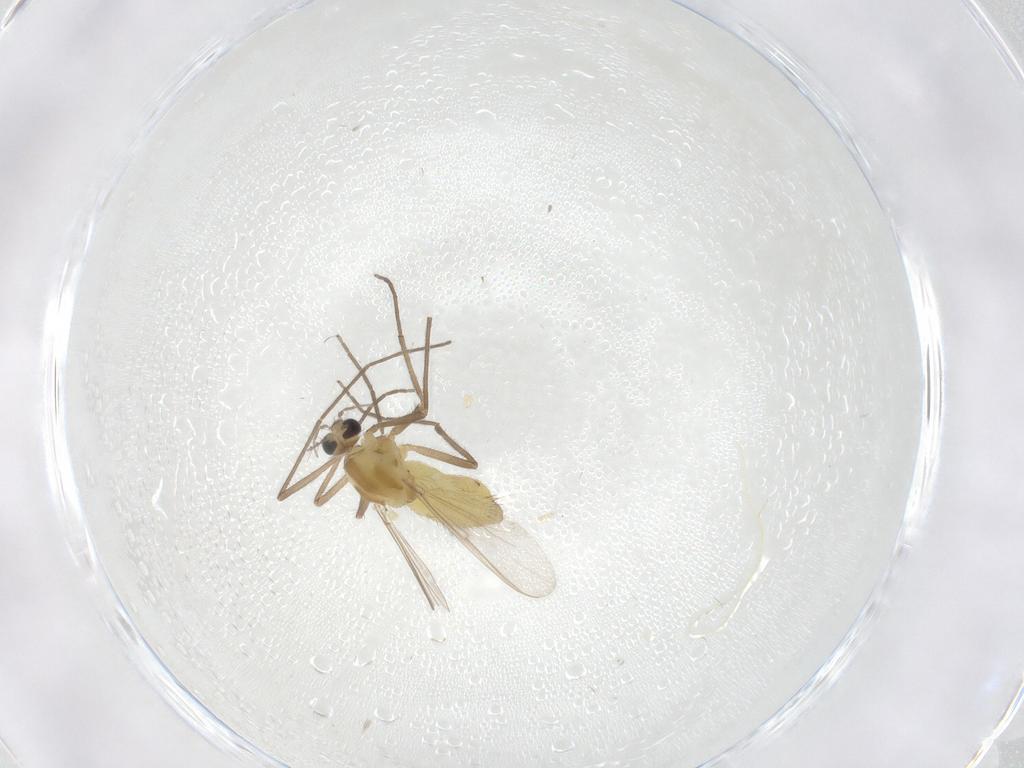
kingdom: Animalia
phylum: Arthropoda
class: Insecta
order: Diptera
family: Chironomidae
